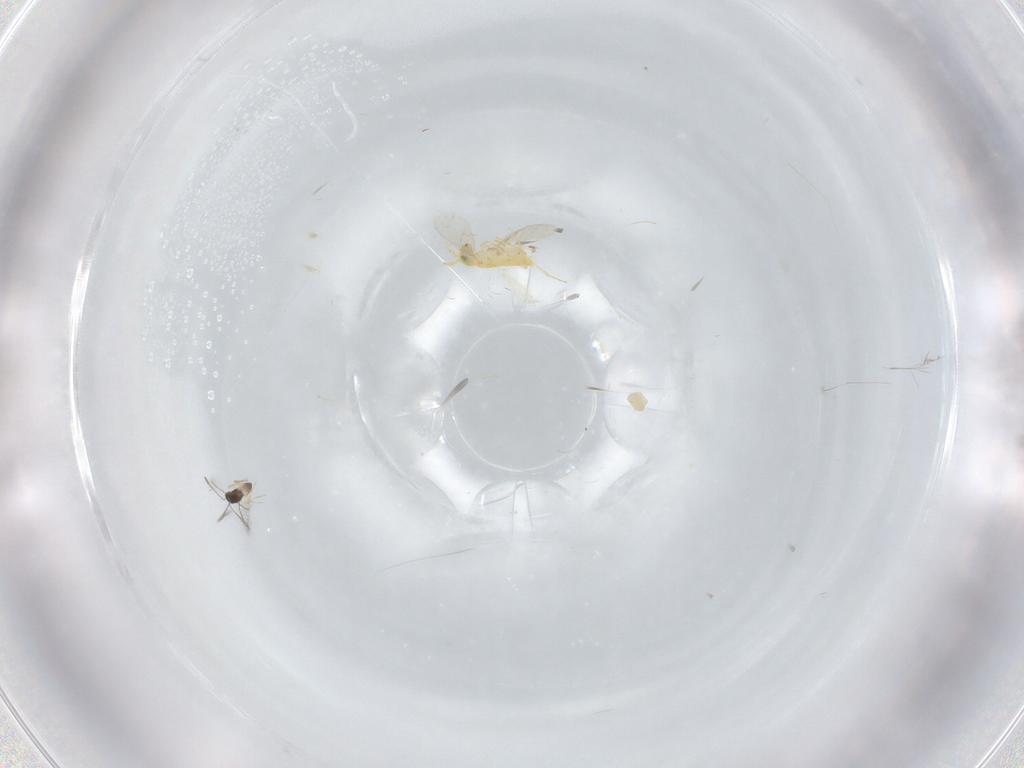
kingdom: Animalia
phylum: Arthropoda
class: Insecta
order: Hymenoptera
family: Aphelinidae
